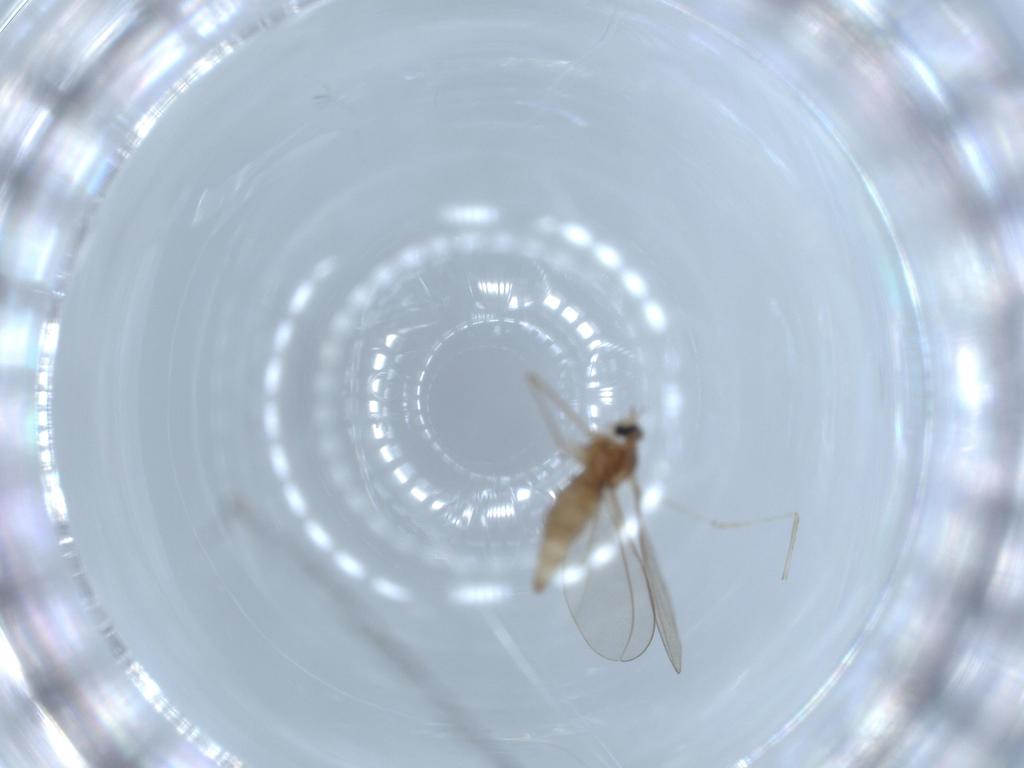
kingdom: Animalia
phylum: Arthropoda
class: Insecta
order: Diptera
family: Cecidomyiidae
